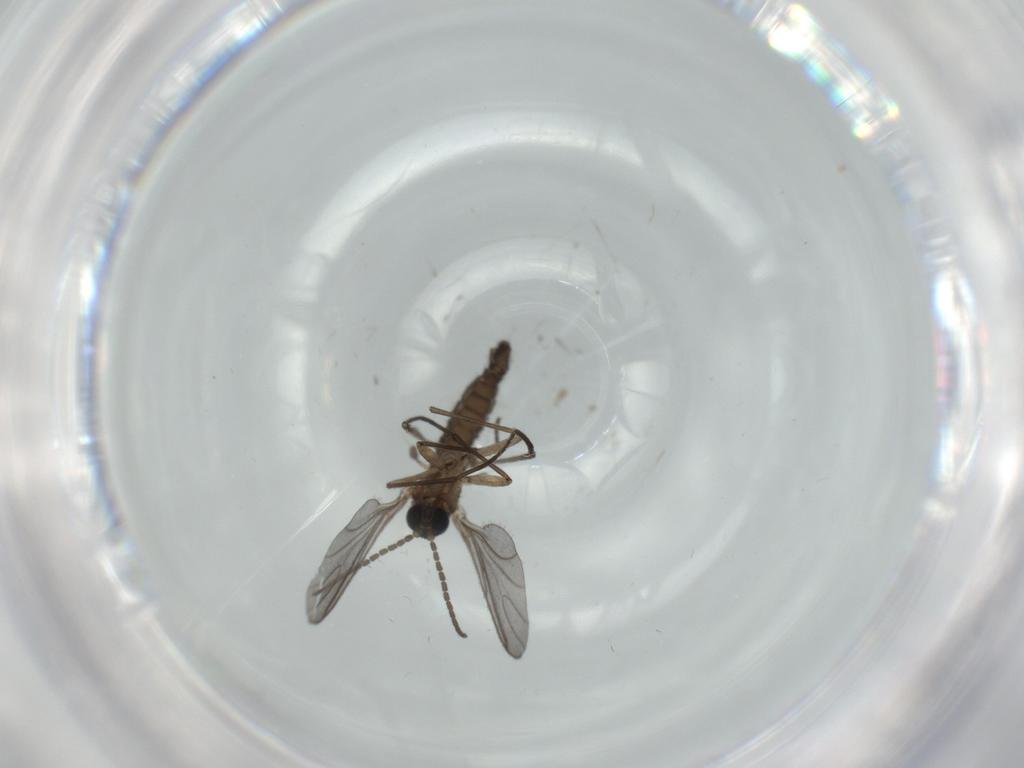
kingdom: Animalia
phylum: Arthropoda
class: Insecta
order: Diptera
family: Sciaridae
